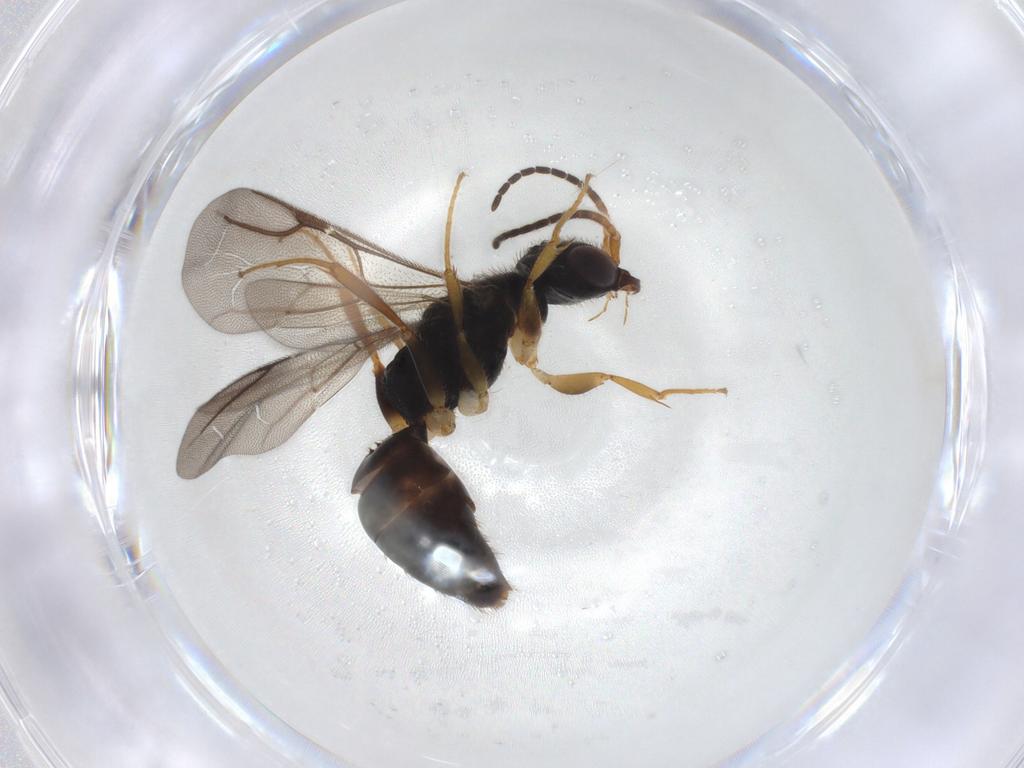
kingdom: Animalia
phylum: Arthropoda
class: Insecta
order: Hymenoptera
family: Bethylidae
